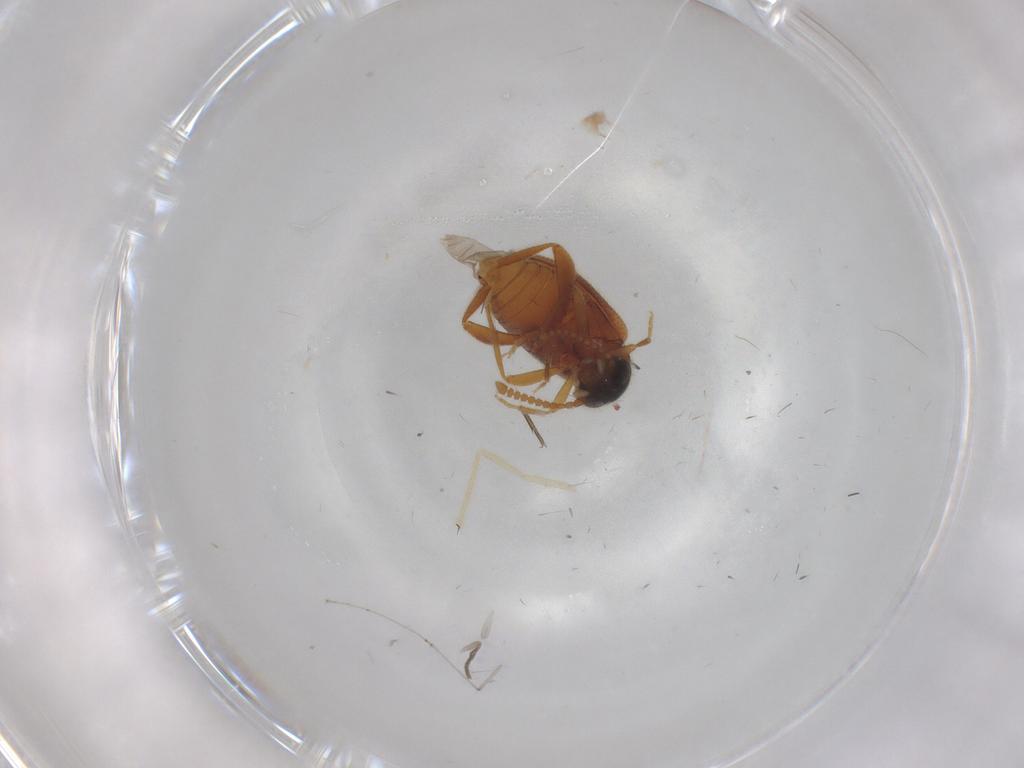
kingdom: Animalia
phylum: Arthropoda
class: Insecta
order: Coleoptera
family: Aderidae
